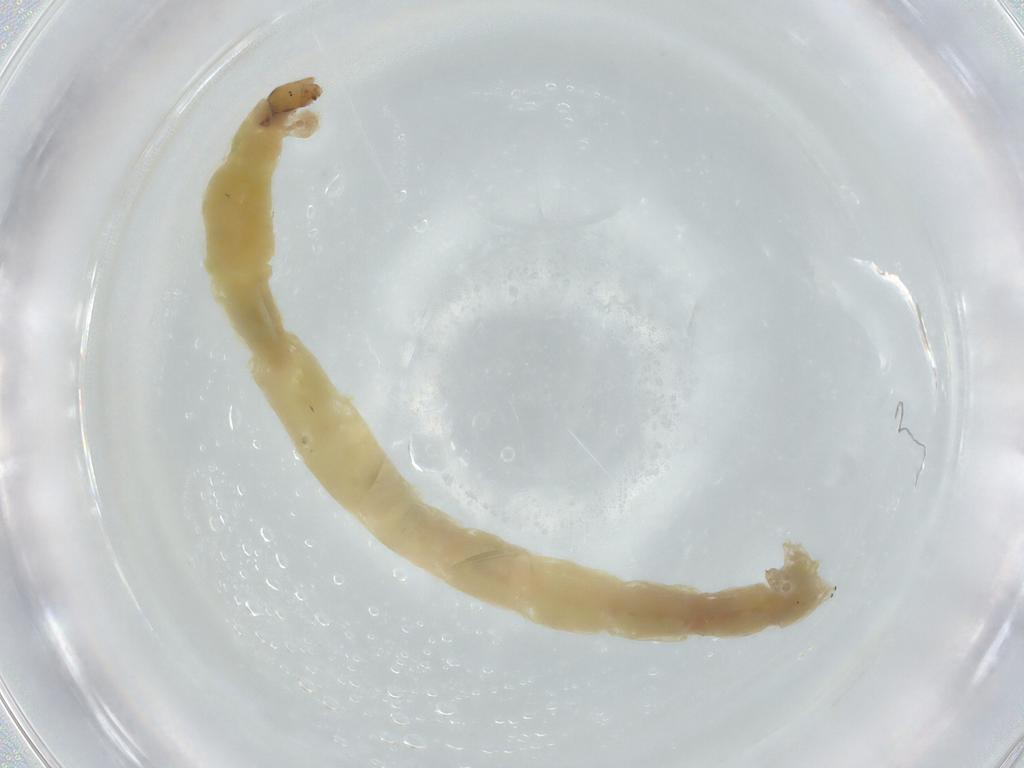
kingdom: Animalia
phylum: Arthropoda
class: Insecta
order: Diptera
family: Chironomidae
